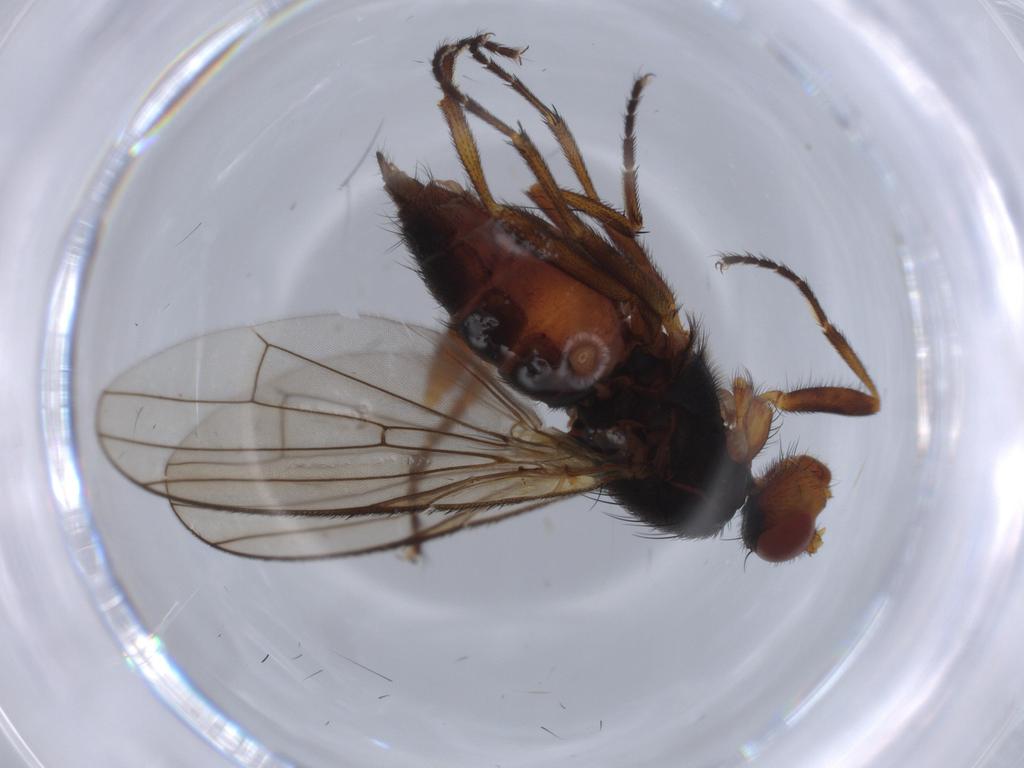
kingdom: Animalia
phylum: Arthropoda
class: Insecta
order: Diptera
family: Heleomyzidae
